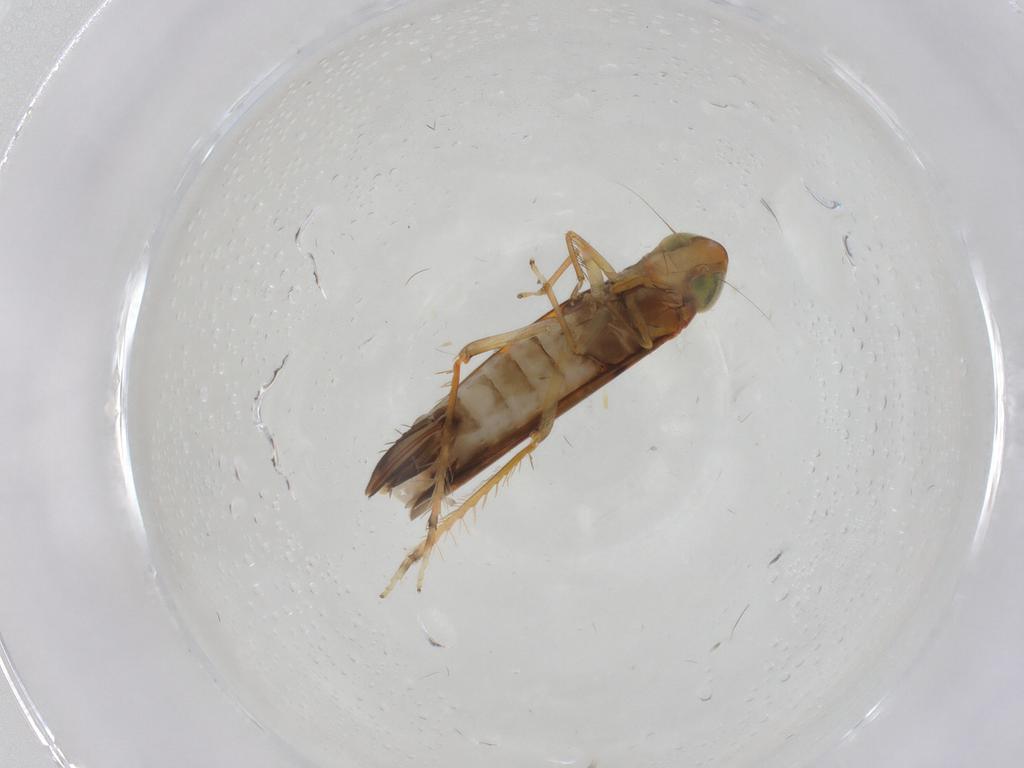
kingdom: Animalia
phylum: Arthropoda
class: Insecta
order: Hemiptera
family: Cicadellidae
